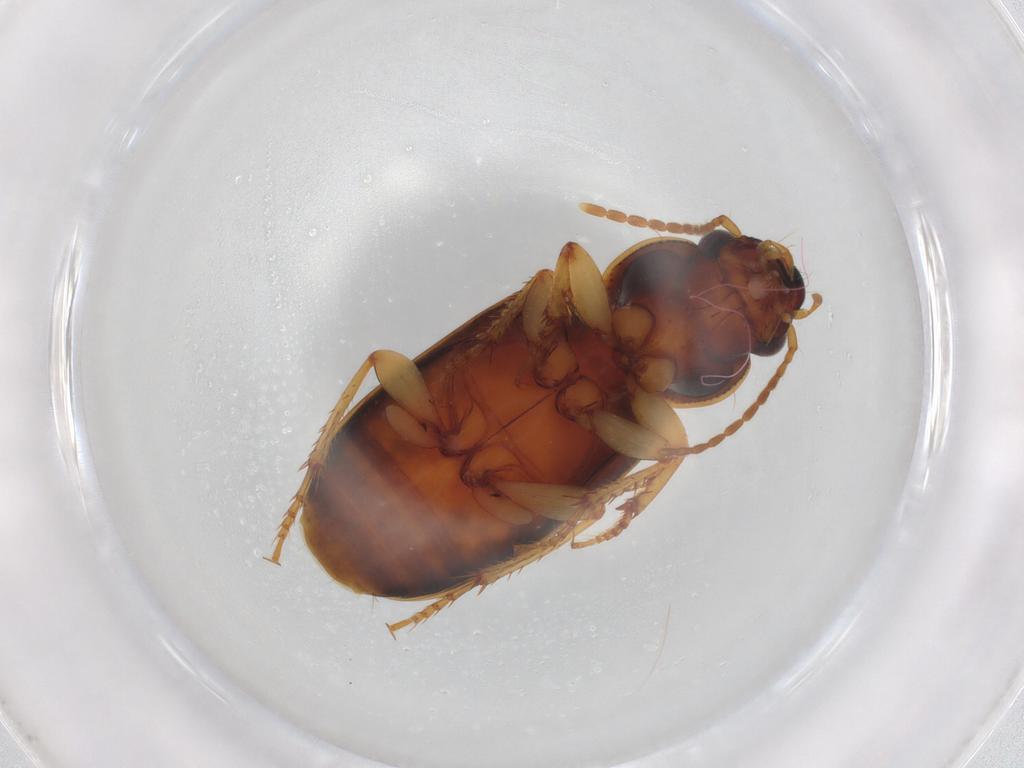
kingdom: Animalia
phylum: Arthropoda
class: Insecta
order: Coleoptera
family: Carabidae
